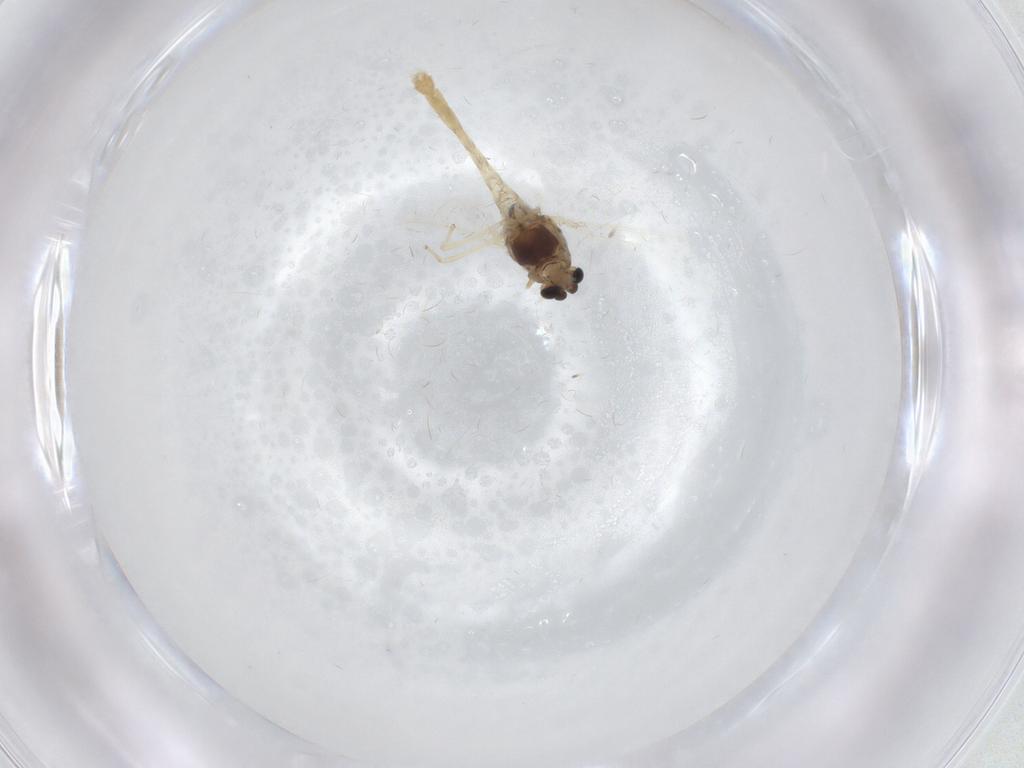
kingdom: Animalia
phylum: Arthropoda
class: Insecta
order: Diptera
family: Chironomidae
